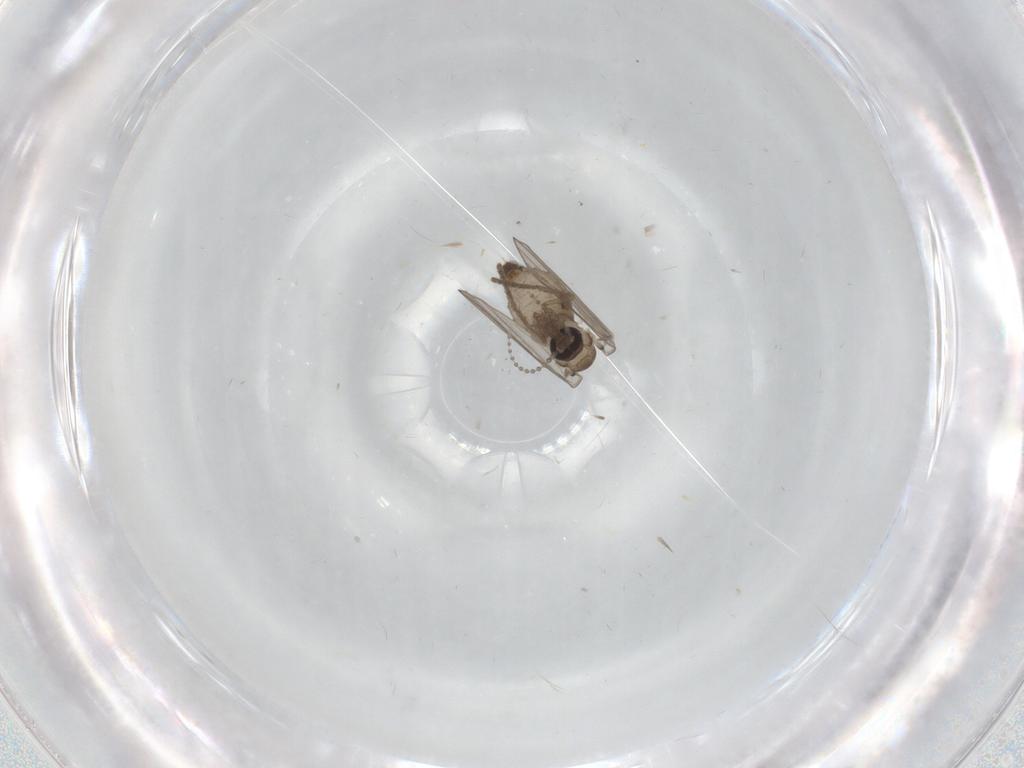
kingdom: Animalia
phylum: Arthropoda
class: Insecta
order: Diptera
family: Psychodidae
